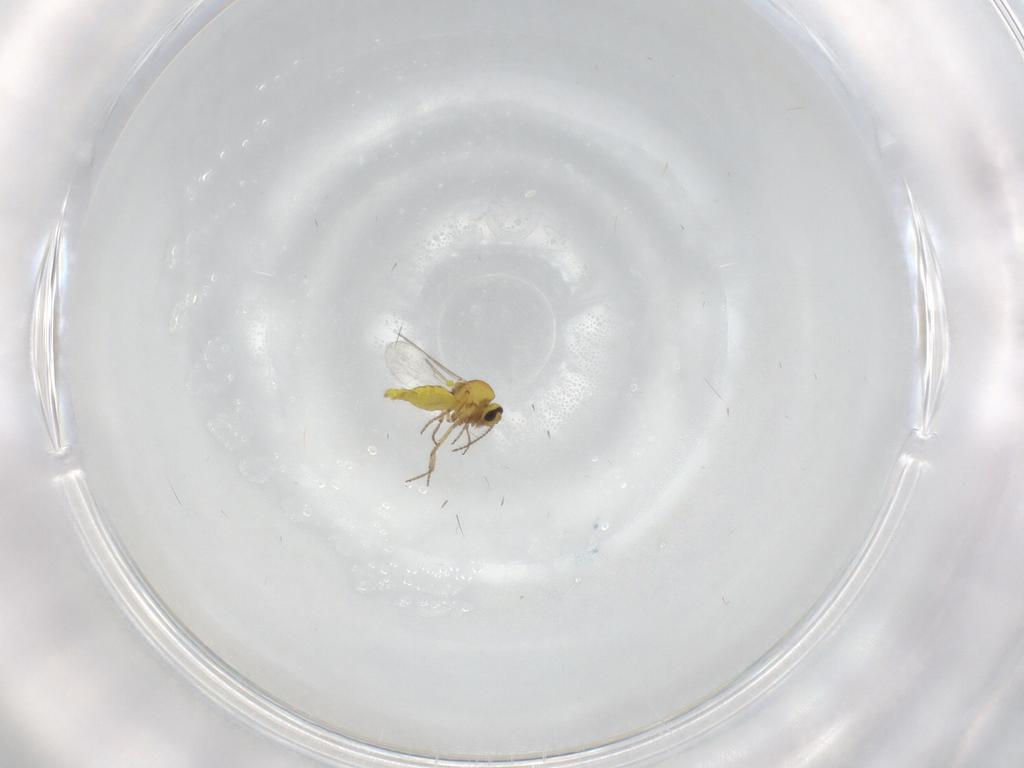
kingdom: Animalia
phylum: Arthropoda
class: Insecta
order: Diptera
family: Ceratopogonidae
